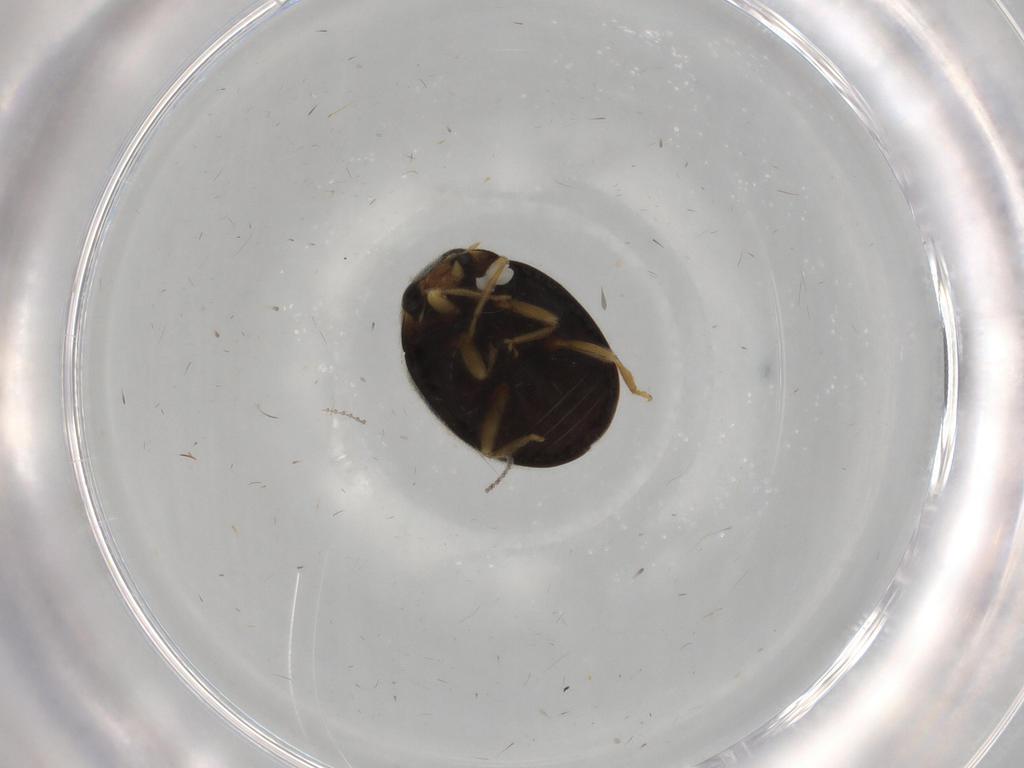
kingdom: Animalia
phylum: Arthropoda
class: Insecta
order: Coleoptera
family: Coccinellidae
